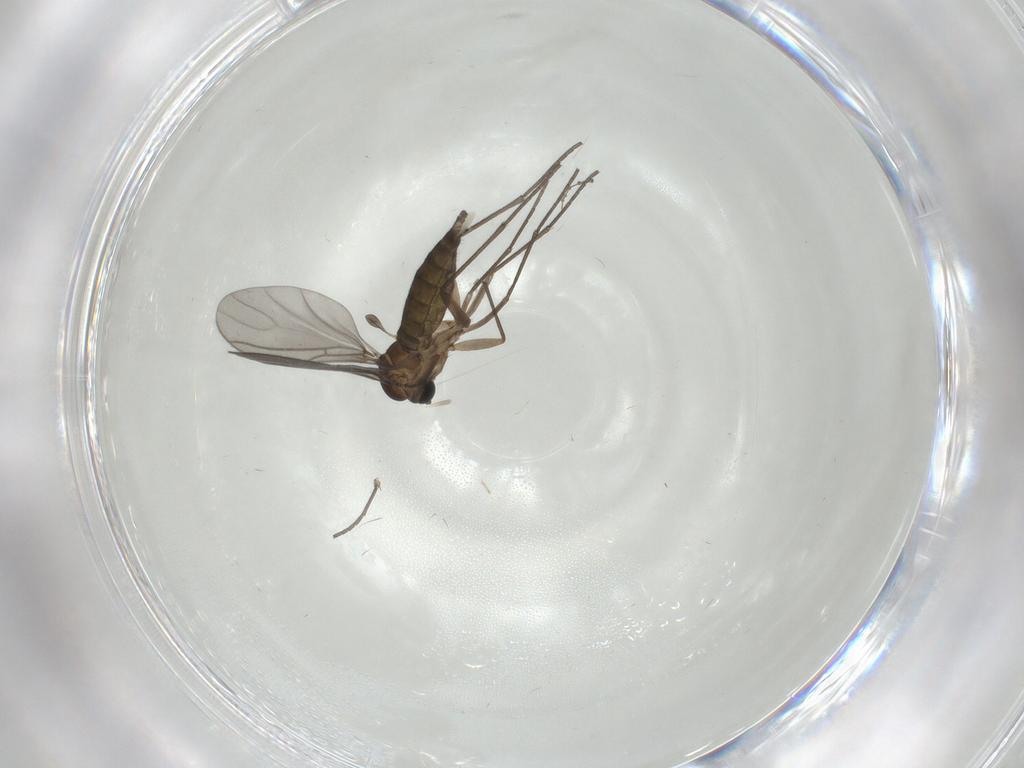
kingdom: Animalia
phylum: Arthropoda
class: Insecta
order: Diptera
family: Sciaridae
